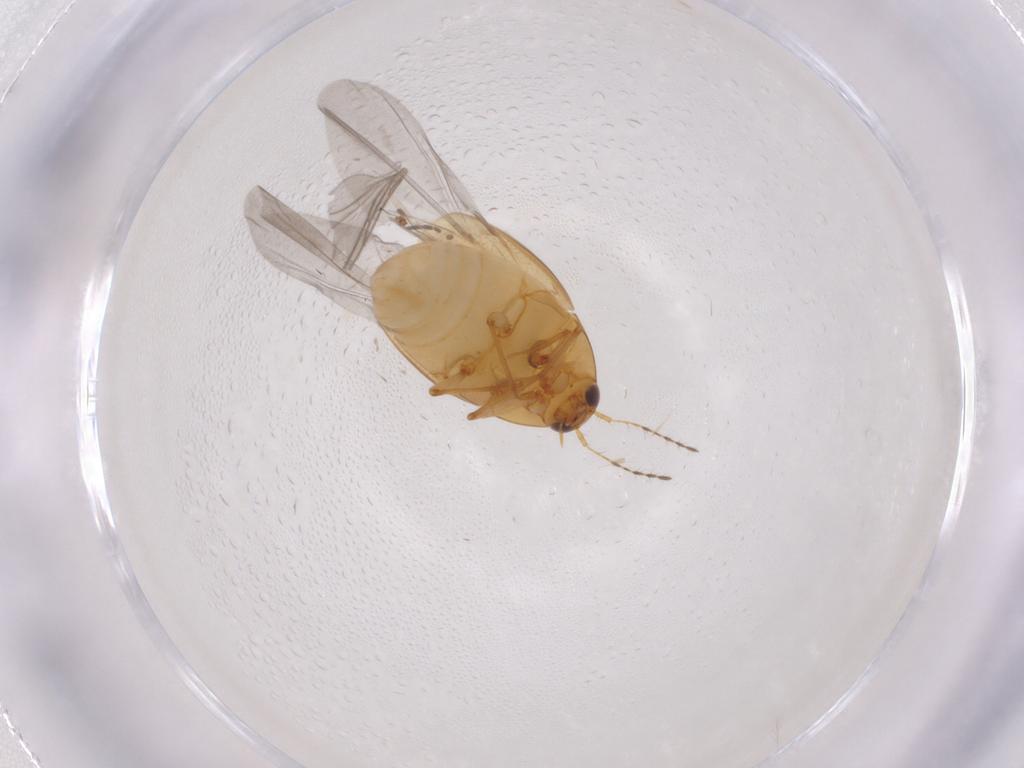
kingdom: Animalia
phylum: Arthropoda
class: Insecta
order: Coleoptera
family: Staphylinidae
